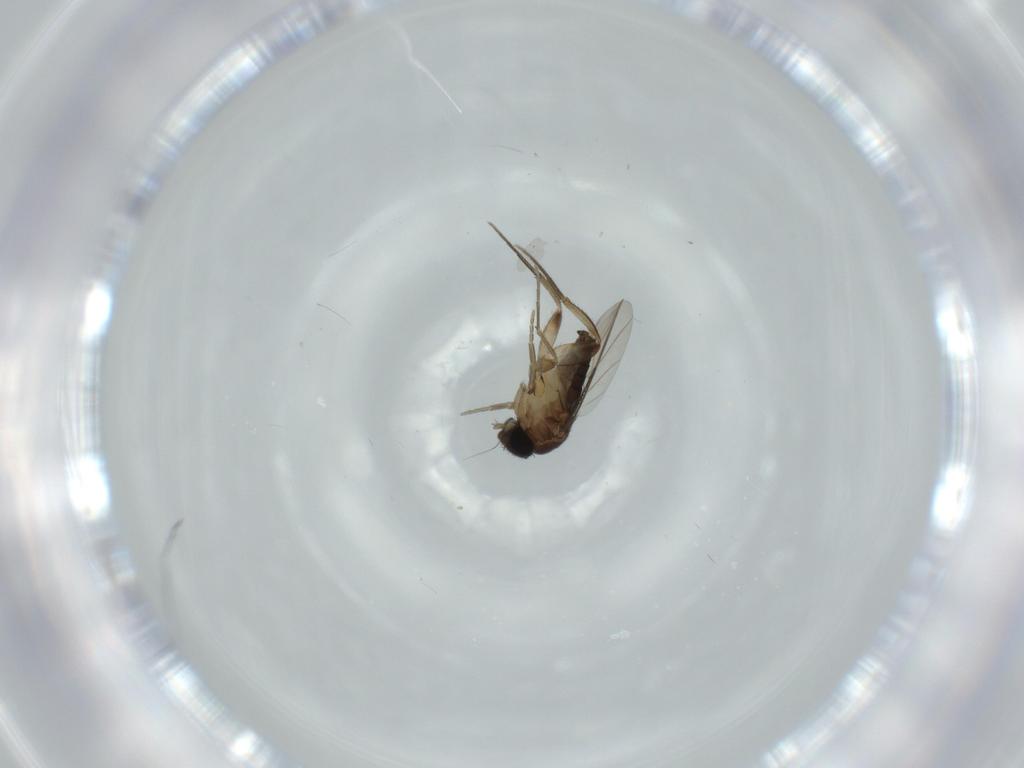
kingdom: Animalia
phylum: Arthropoda
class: Insecta
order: Diptera
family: Phoridae
